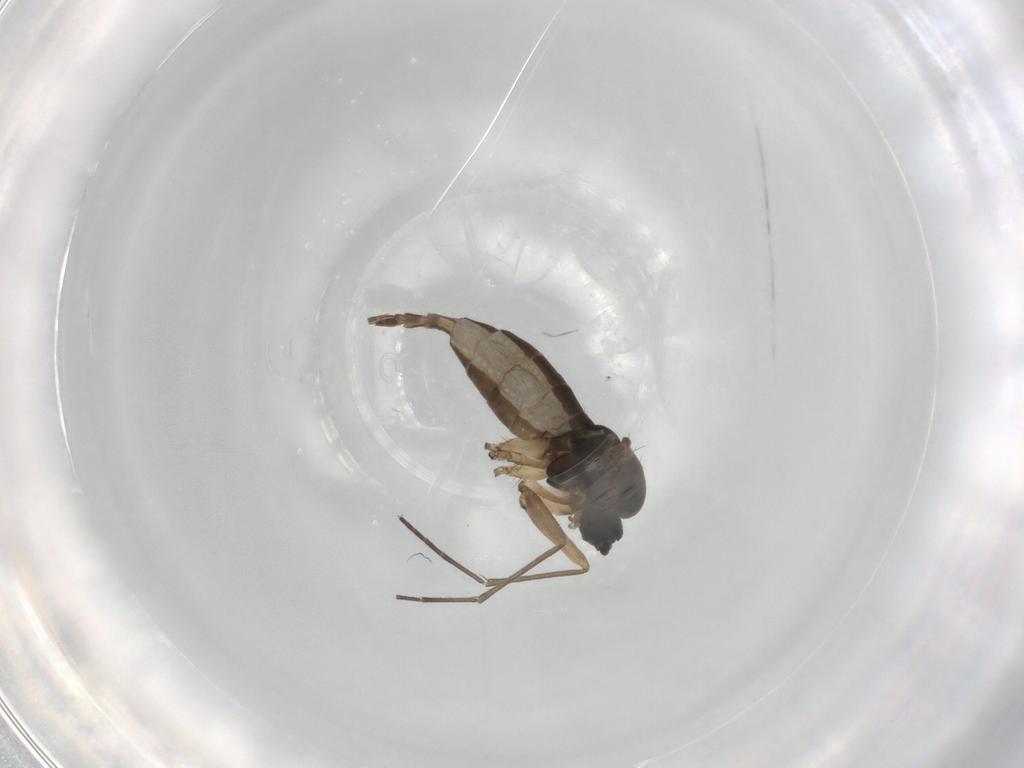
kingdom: Animalia
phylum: Arthropoda
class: Insecta
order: Diptera
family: Sciaridae
